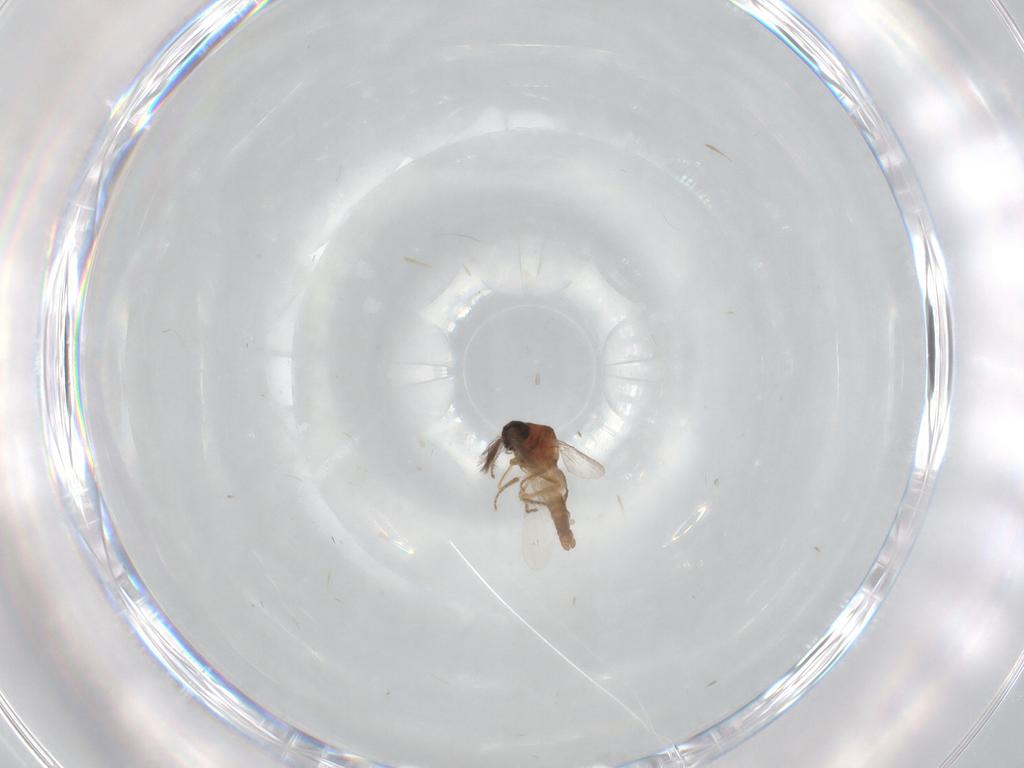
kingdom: Animalia
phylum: Arthropoda
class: Insecta
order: Diptera
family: Ceratopogonidae
